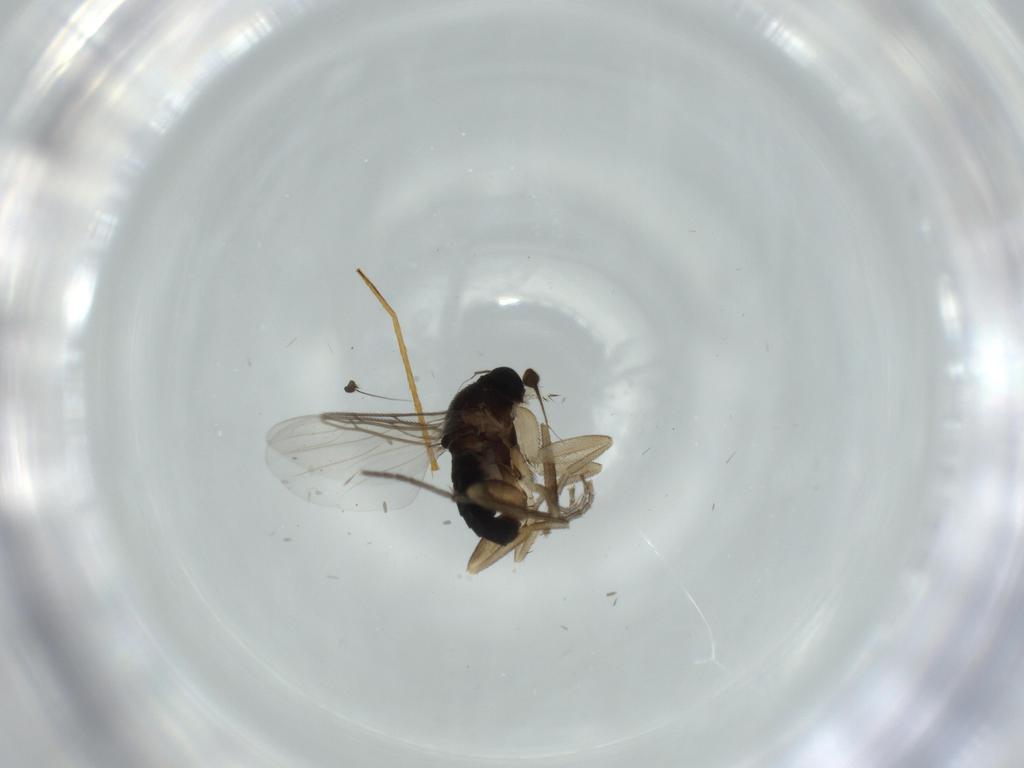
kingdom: Animalia
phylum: Arthropoda
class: Insecta
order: Diptera
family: Phoridae
